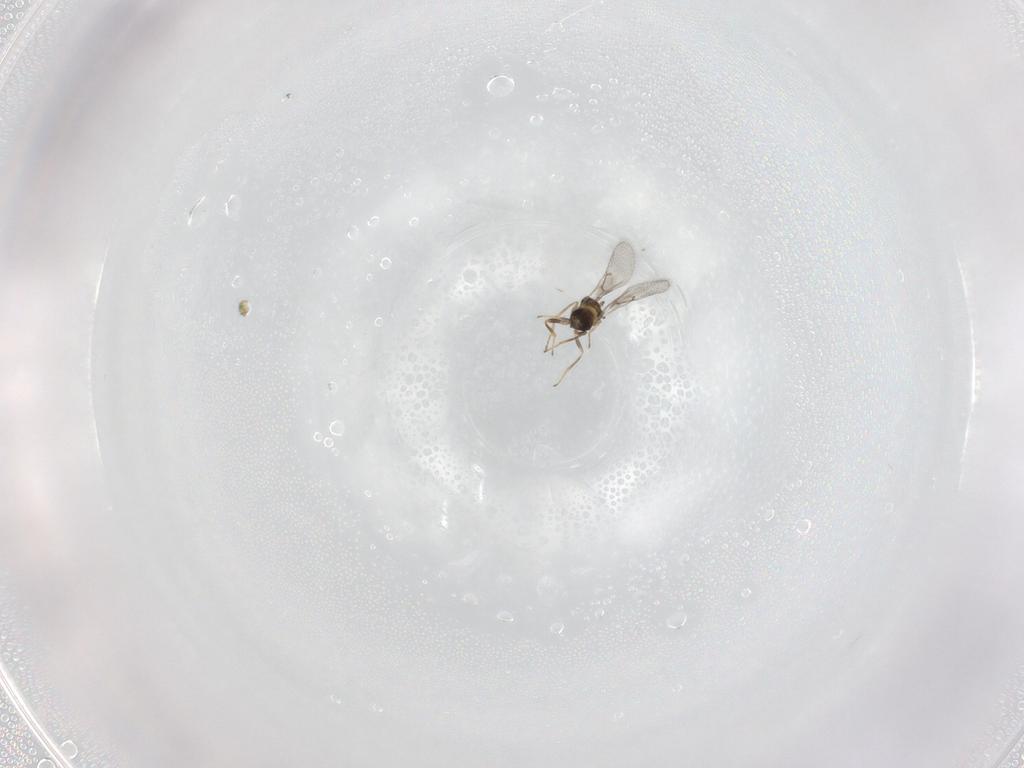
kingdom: Animalia
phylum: Arthropoda
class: Insecta
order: Hymenoptera
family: Trichogrammatidae
